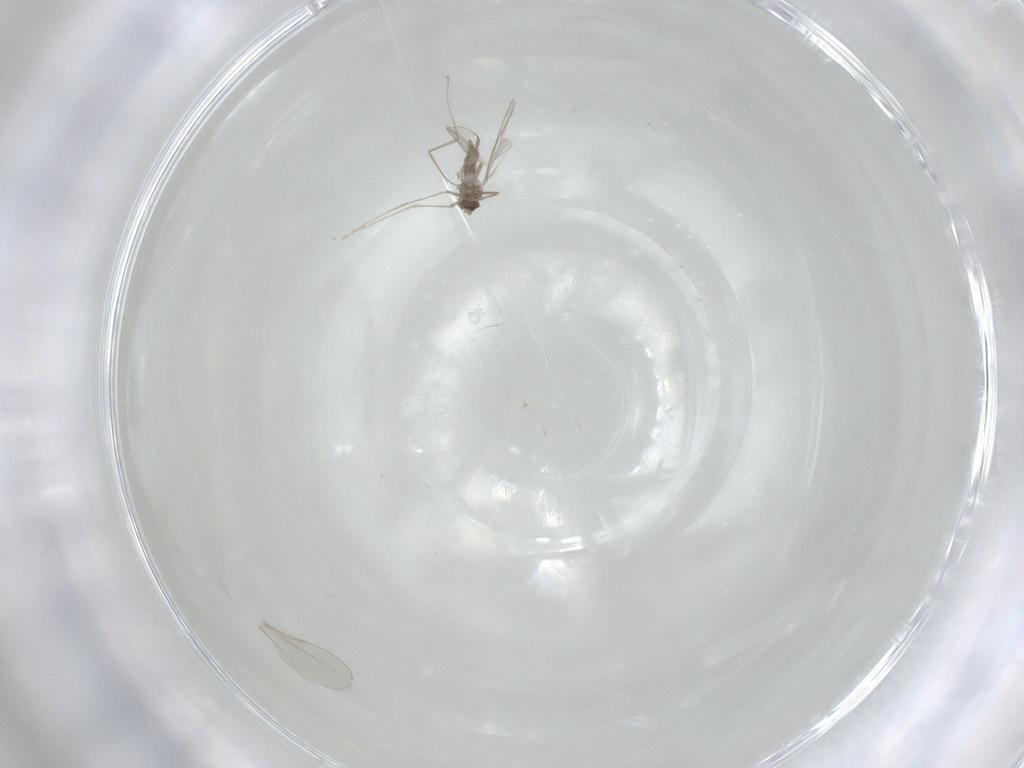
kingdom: Animalia
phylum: Arthropoda
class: Insecta
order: Diptera
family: Cecidomyiidae
